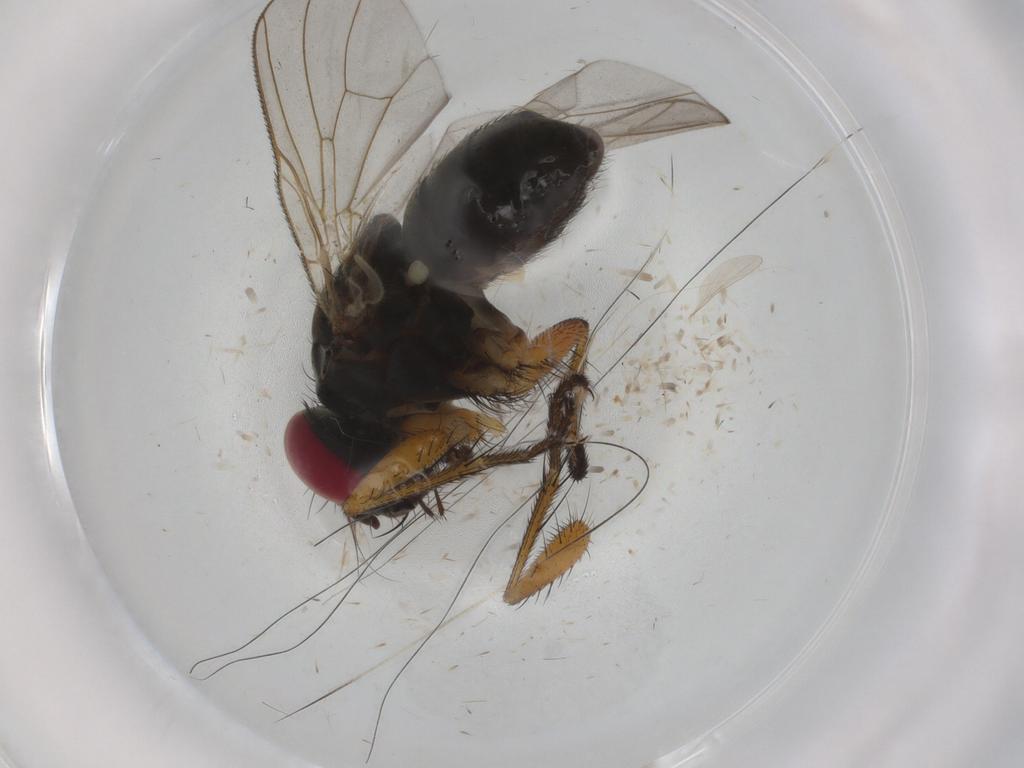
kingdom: Animalia
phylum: Arthropoda
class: Insecta
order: Diptera
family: Muscidae
